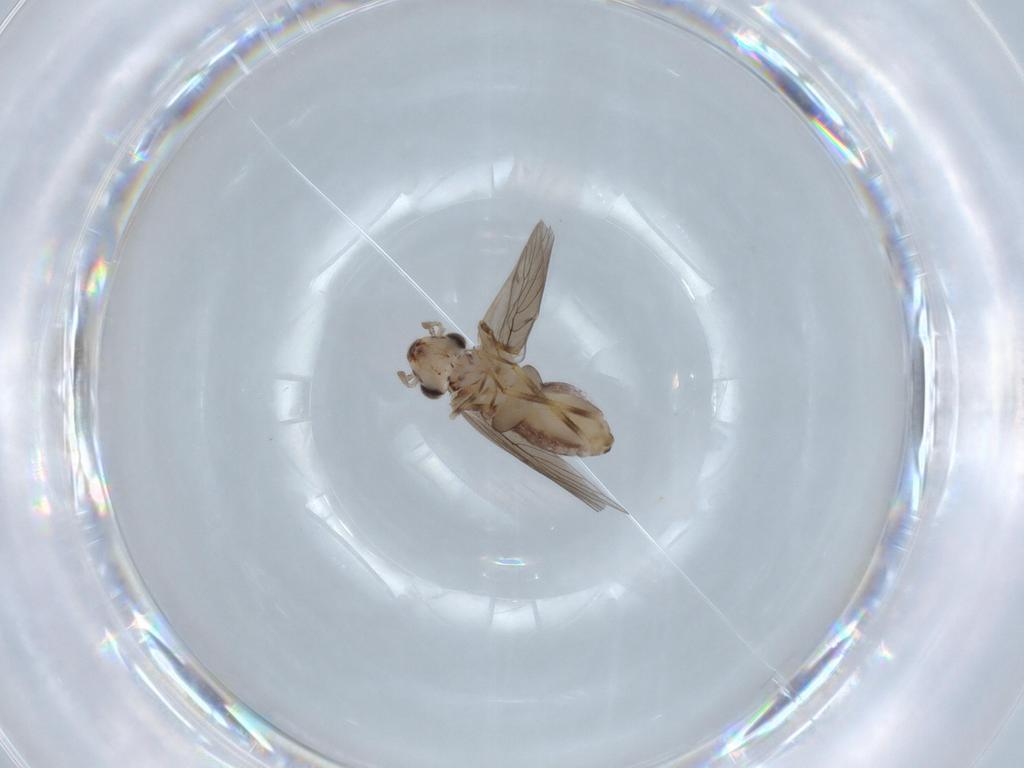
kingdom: Animalia
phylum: Arthropoda
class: Insecta
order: Psocodea
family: Lepidopsocidae
